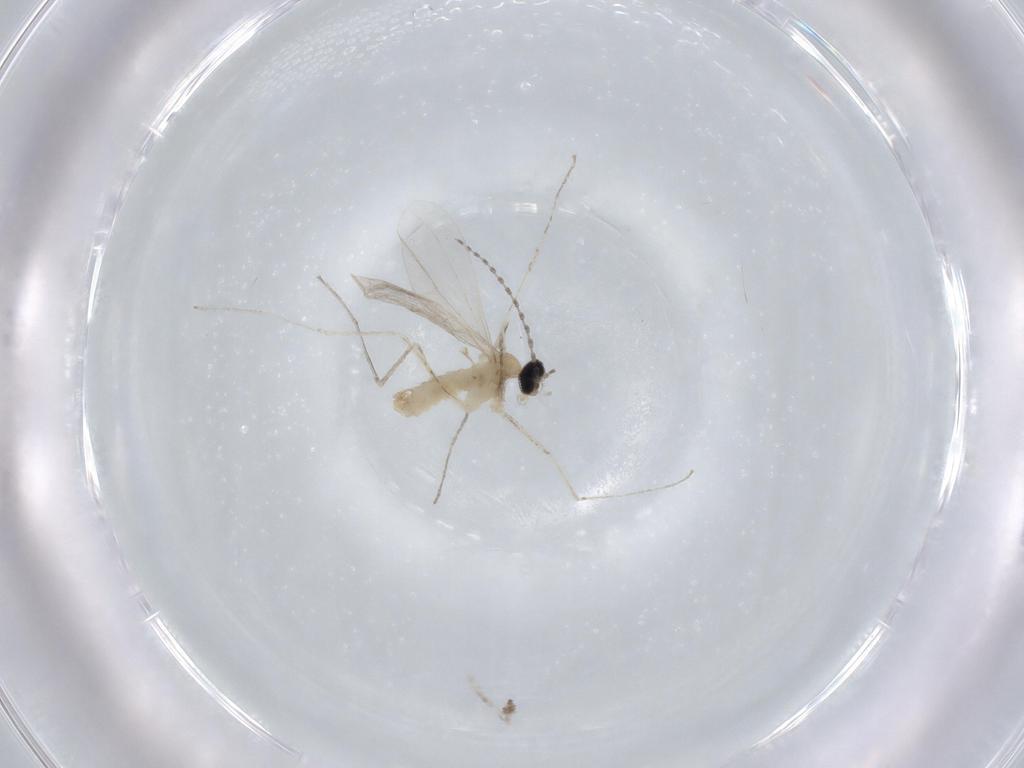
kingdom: Animalia
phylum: Arthropoda
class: Insecta
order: Diptera
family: Cecidomyiidae
